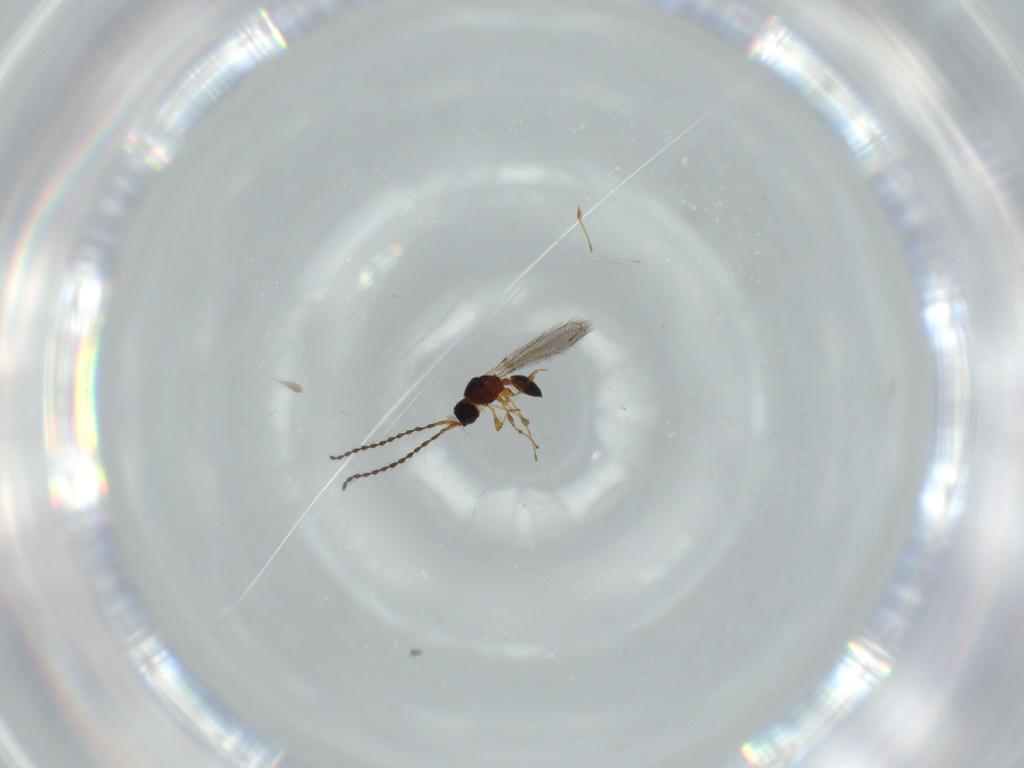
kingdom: Animalia
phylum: Arthropoda
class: Insecta
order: Hymenoptera
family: Diapriidae
